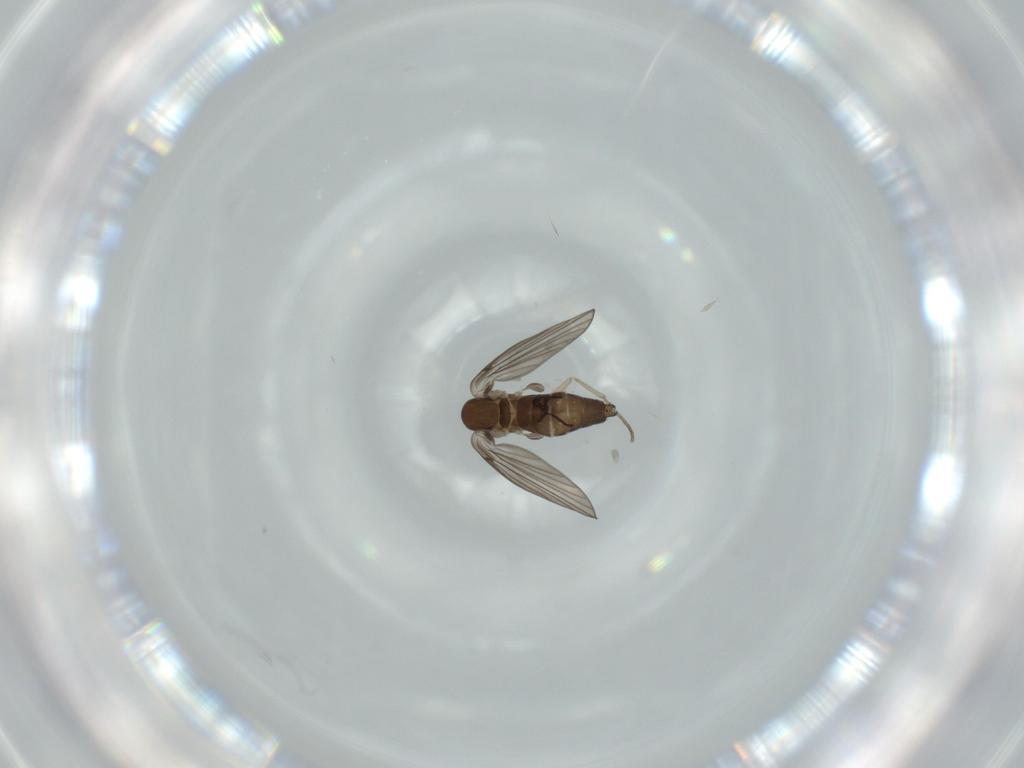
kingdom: Animalia
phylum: Arthropoda
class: Insecta
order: Diptera
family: Sciaridae
